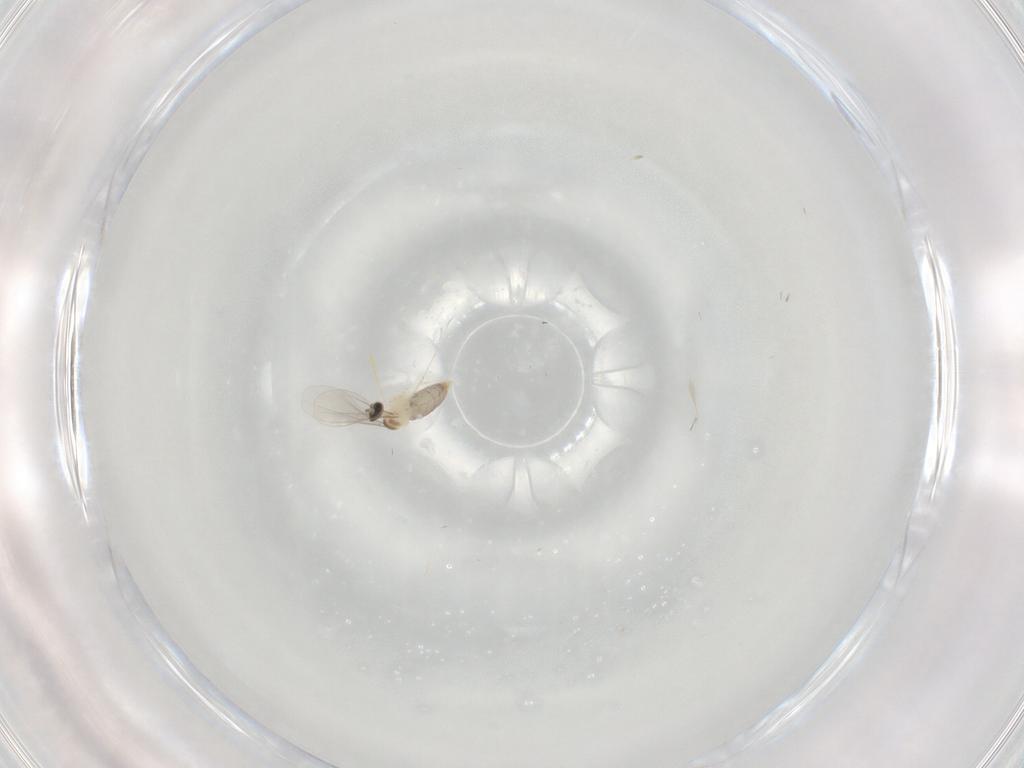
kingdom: Animalia
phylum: Arthropoda
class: Insecta
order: Diptera
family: Cecidomyiidae
